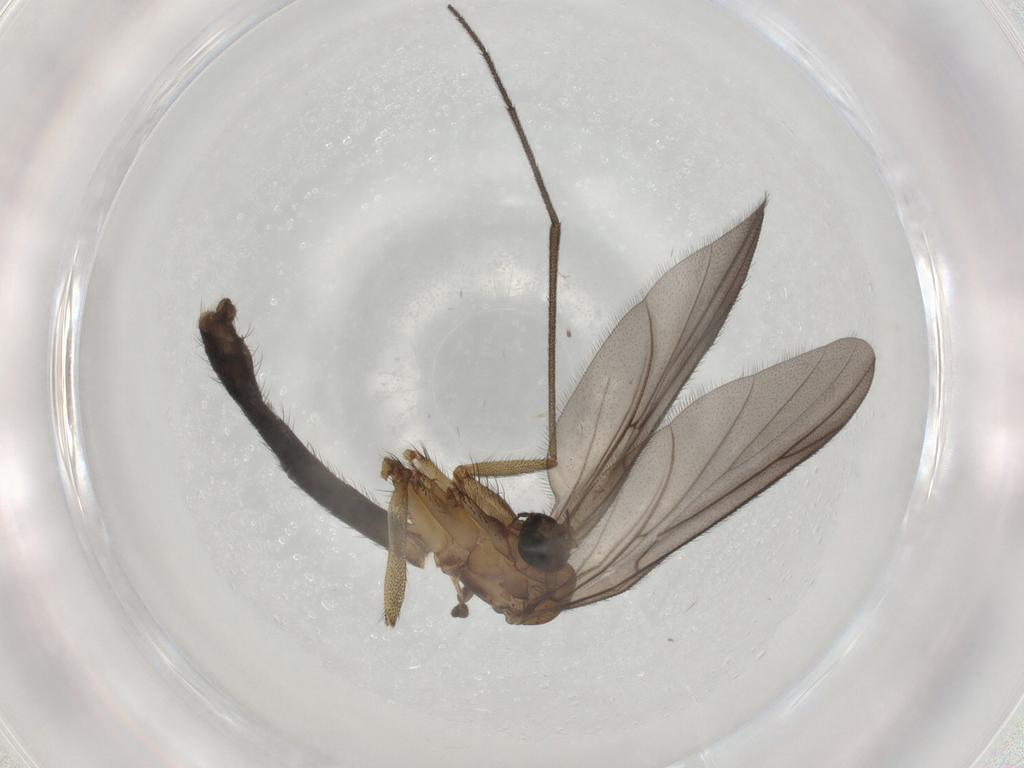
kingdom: Animalia
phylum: Arthropoda
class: Insecta
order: Diptera
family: Ditomyiidae
